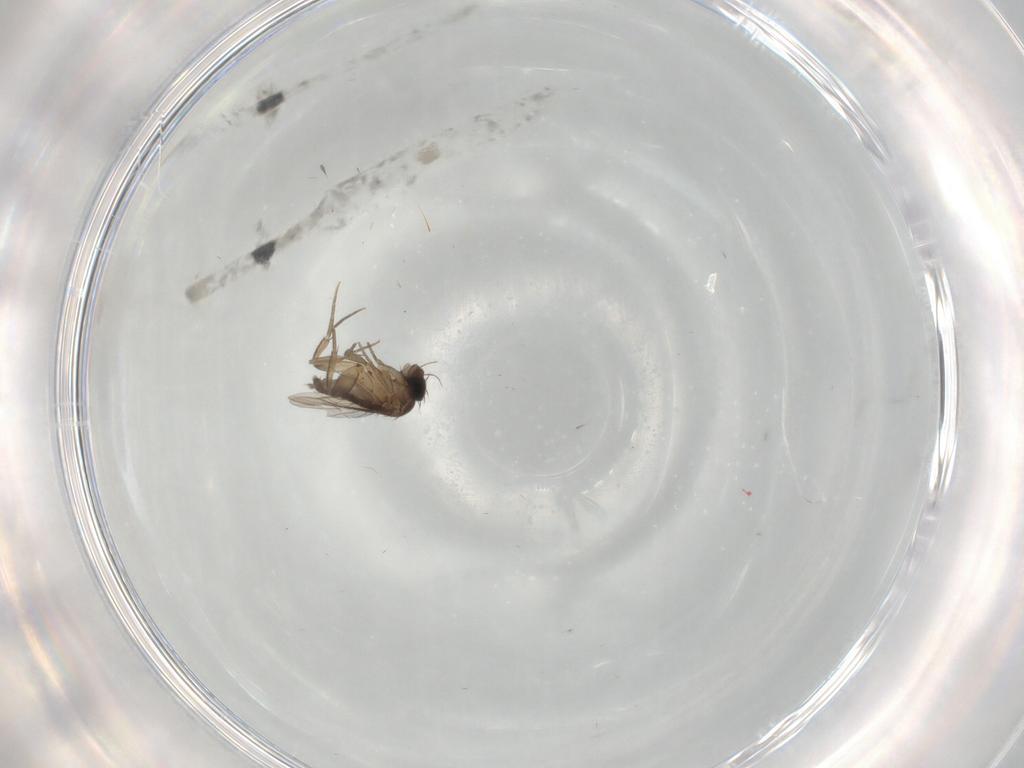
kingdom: Animalia
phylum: Arthropoda
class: Insecta
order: Diptera
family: Phoridae
